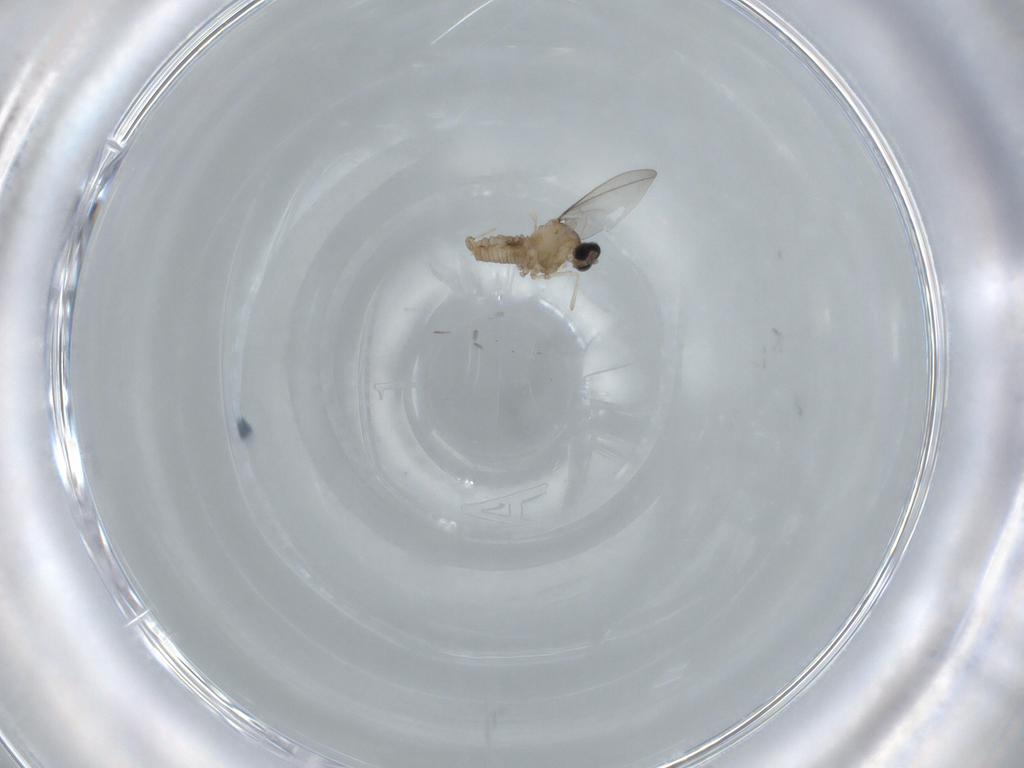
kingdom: Animalia
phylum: Arthropoda
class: Insecta
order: Diptera
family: Cecidomyiidae
